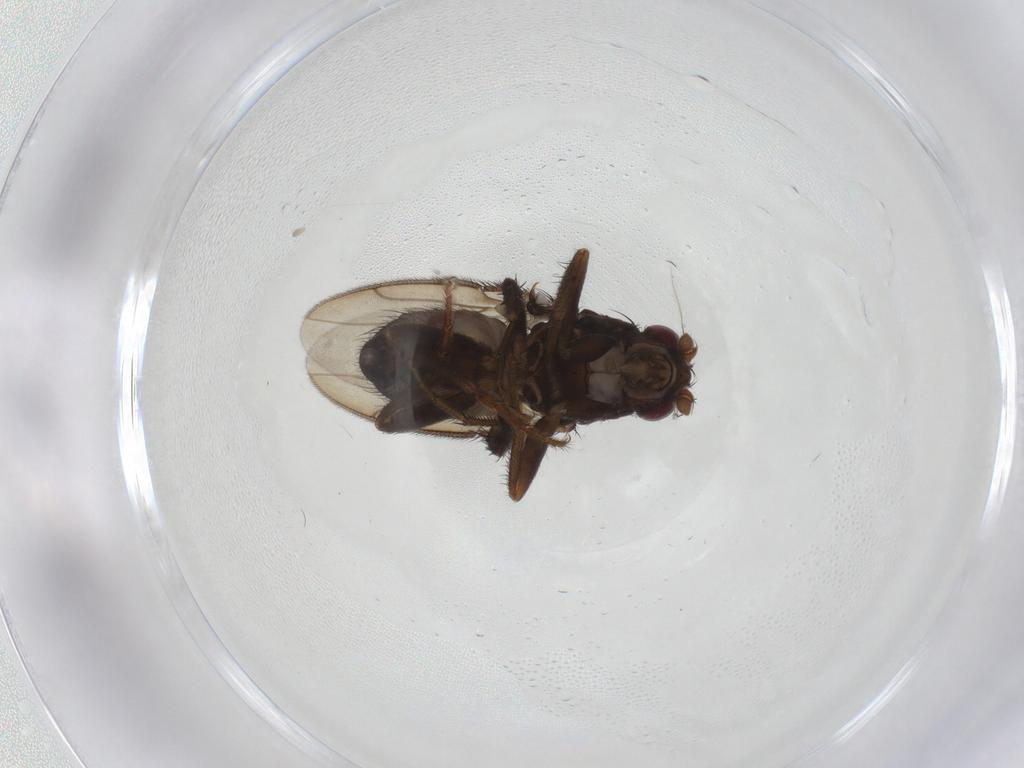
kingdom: Animalia
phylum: Arthropoda
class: Insecta
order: Diptera
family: Sphaeroceridae
